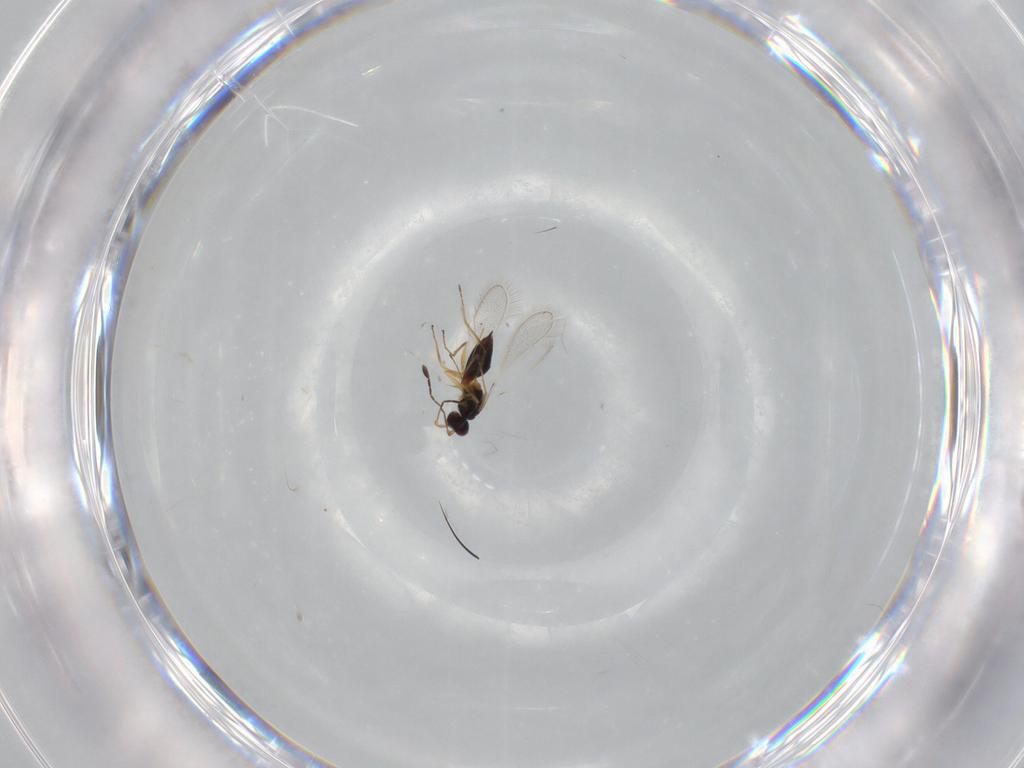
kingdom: Animalia
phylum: Arthropoda
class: Insecta
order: Hymenoptera
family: Mymaridae
